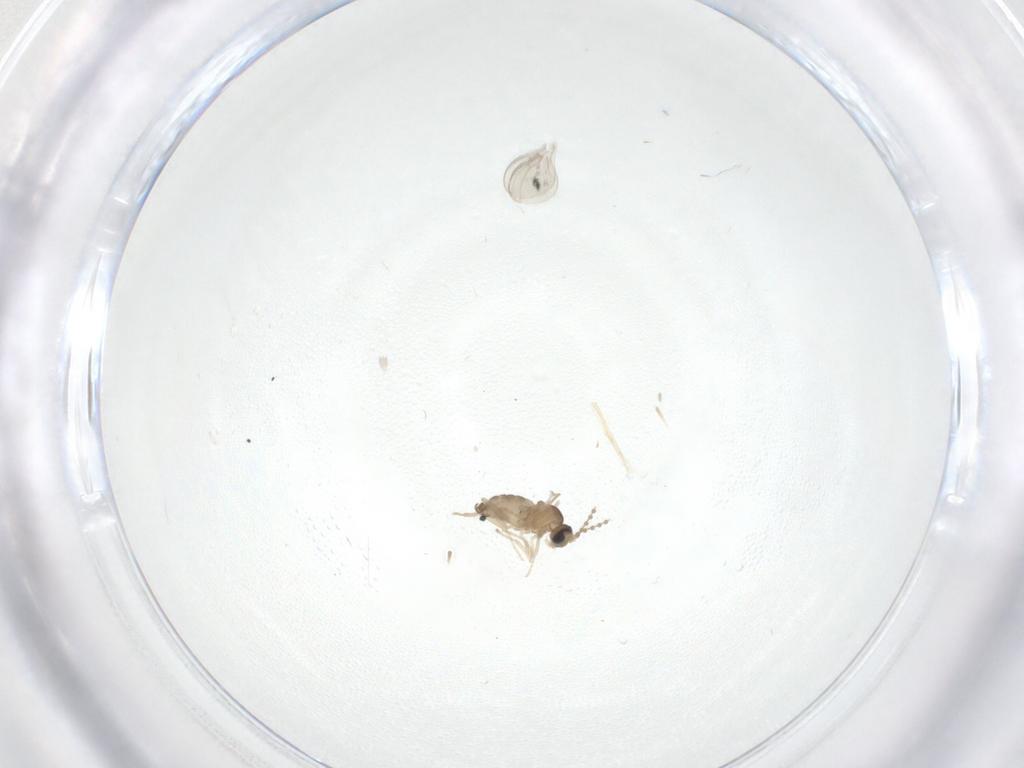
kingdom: Animalia
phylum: Arthropoda
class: Insecta
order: Diptera
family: Cecidomyiidae
